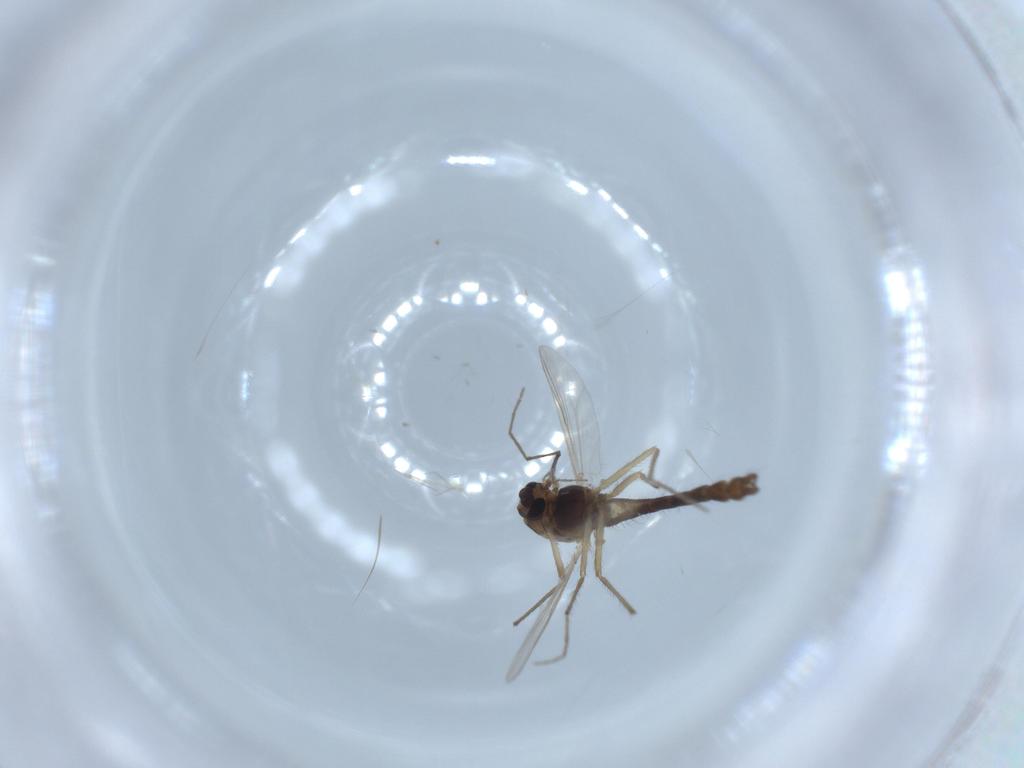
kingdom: Animalia
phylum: Arthropoda
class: Insecta
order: Diptera
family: Chironomidae
